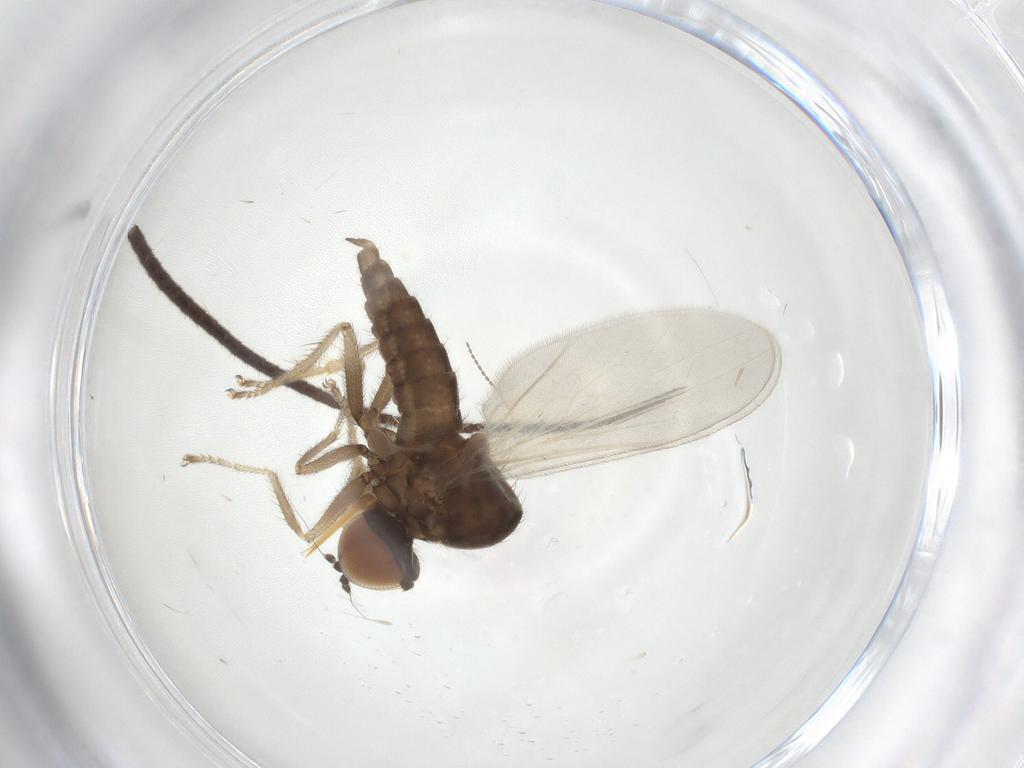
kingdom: Animalia
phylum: Arthropoda
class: Insecta
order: Diptera
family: Hybotidae
